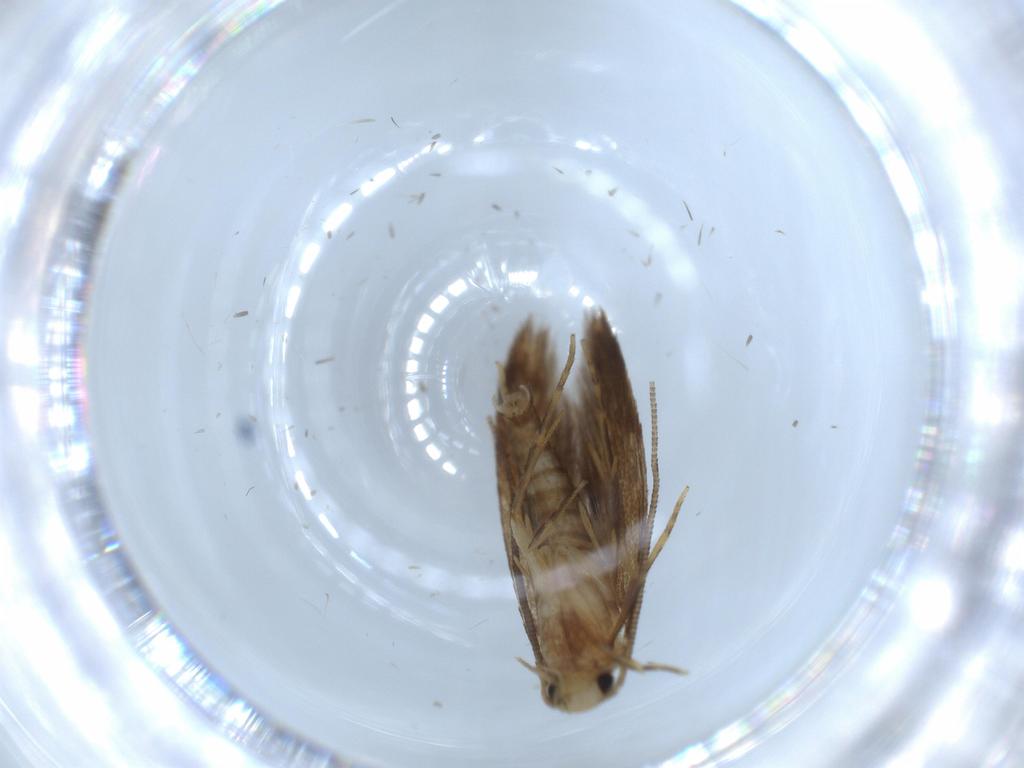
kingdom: Animalia
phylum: Arthropoda
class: Insecta
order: Lepidoptera
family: Tineidae
